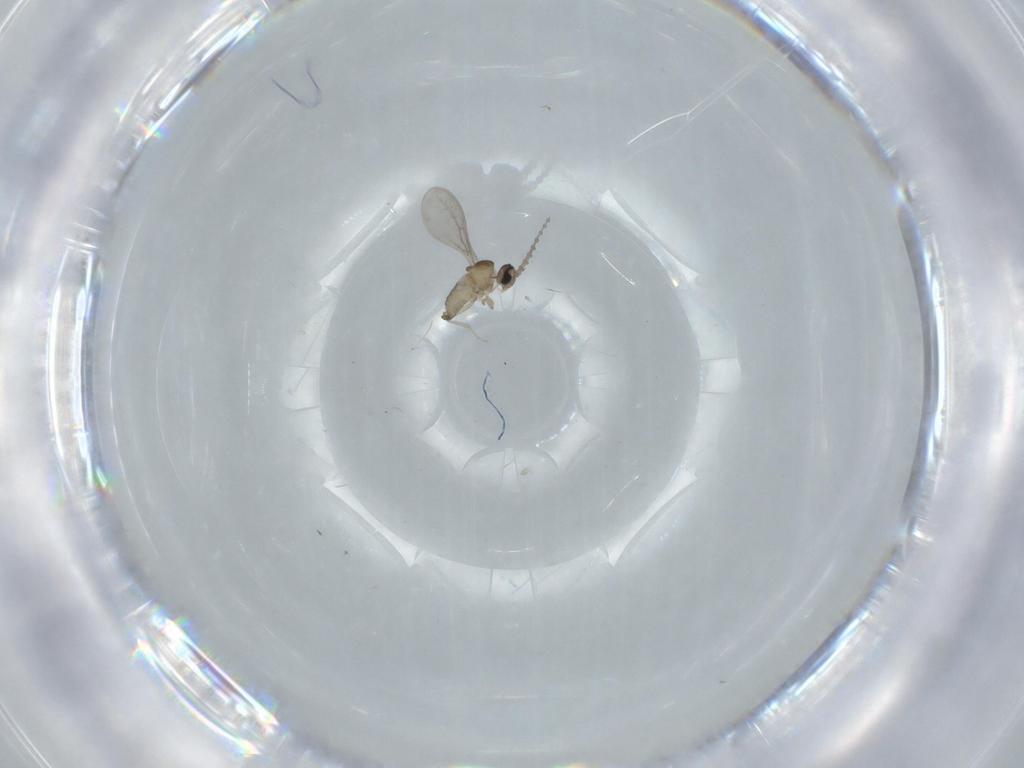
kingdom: Animalia
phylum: Arthropoda
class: Insecta
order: Diptera
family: Cecidomyiidae
